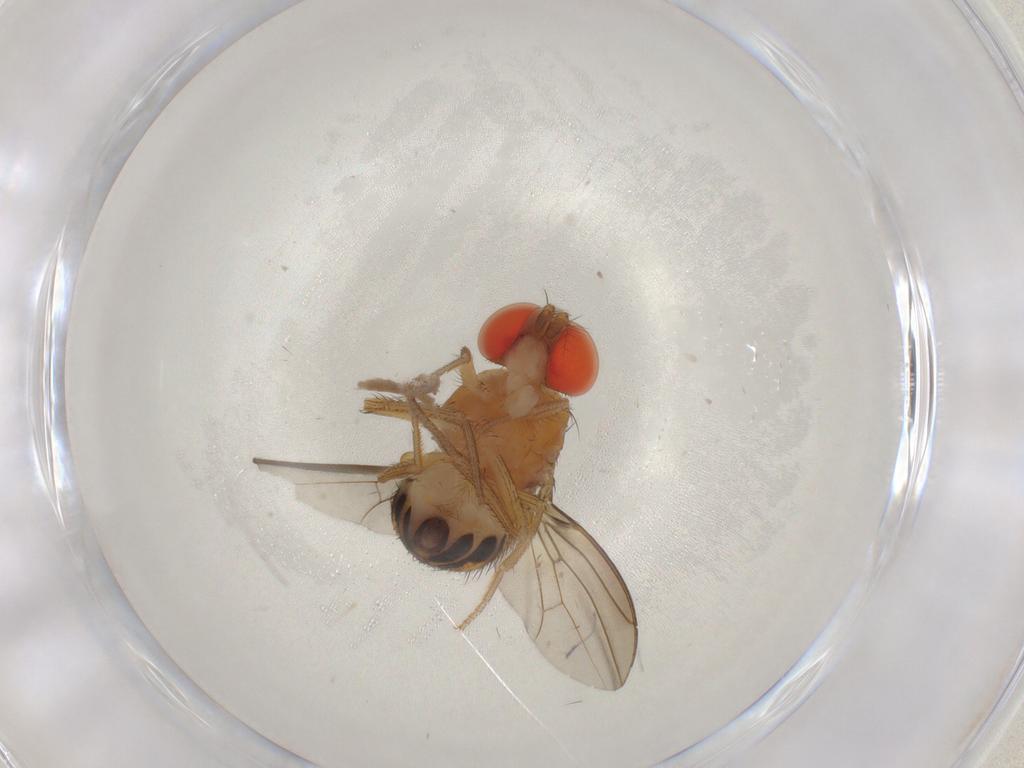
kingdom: Animalia
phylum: Arthropoda
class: Insecta
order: Diptera
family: Drosophilidae
